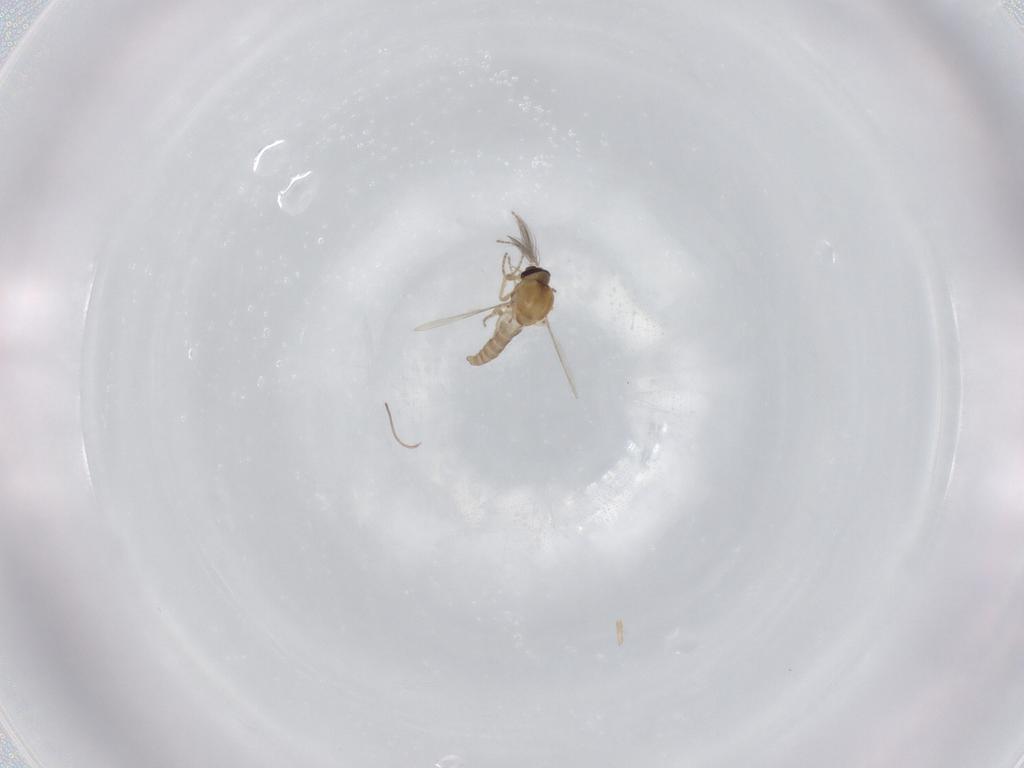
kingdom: Animalia
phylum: Arthropoda
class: Insecta
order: Diptera
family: Ceratopogonidae
